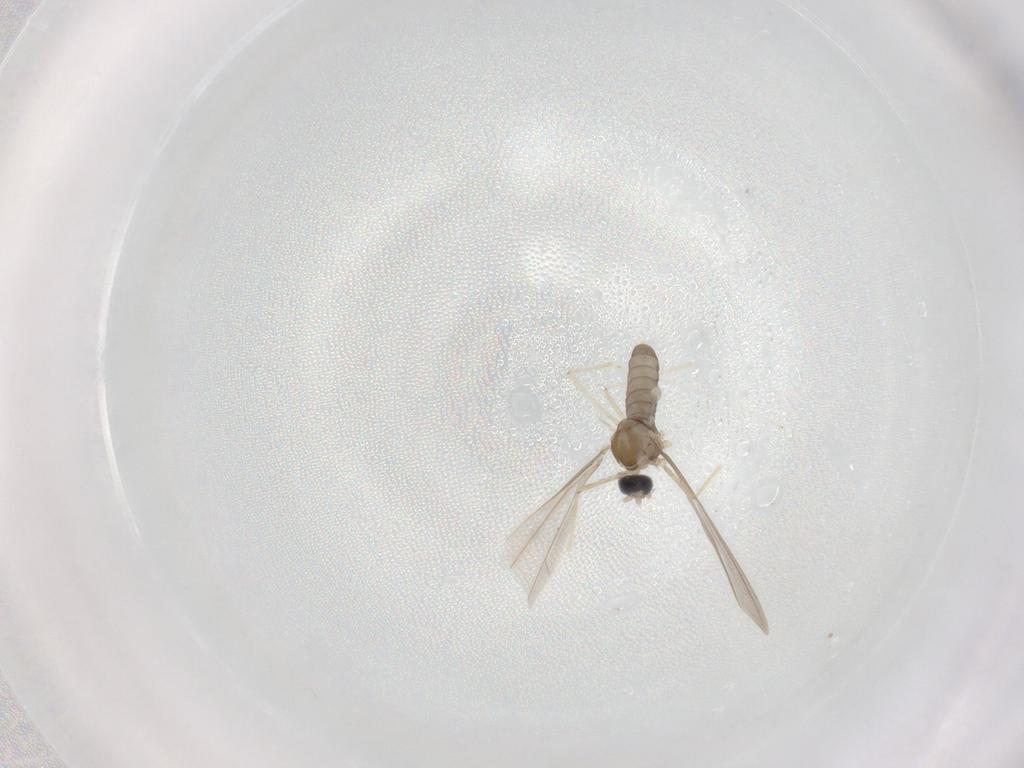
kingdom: Animalia
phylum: Arthropoda
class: Insecta
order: Diptera
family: Cecidomyiidae
